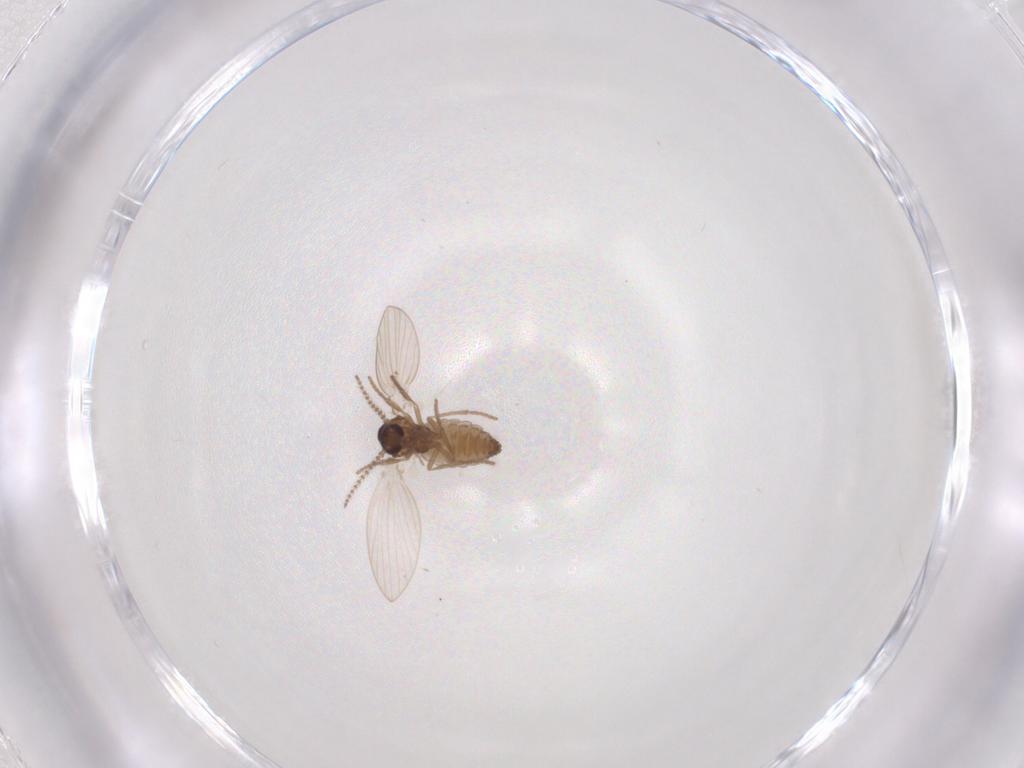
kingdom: Animalia
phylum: Arthropoda
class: Insecta
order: Diptera
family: Psychodidae
